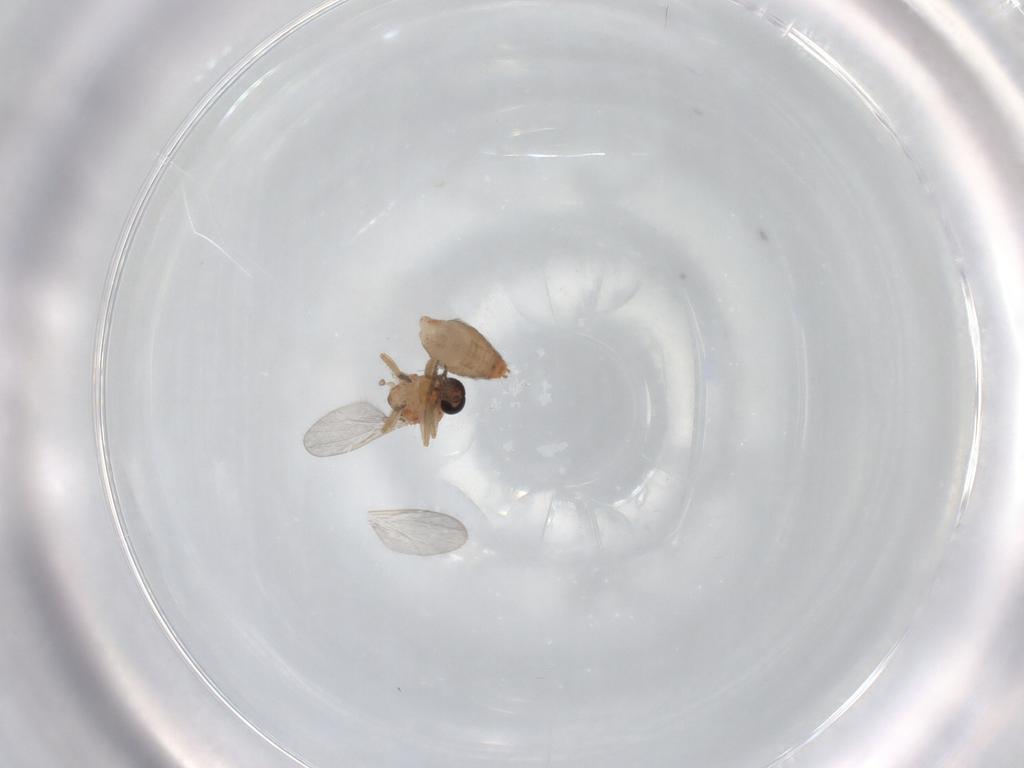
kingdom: Animalia
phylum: Arthropoda
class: Insecta
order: Diptera
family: Ceratopogonidae
